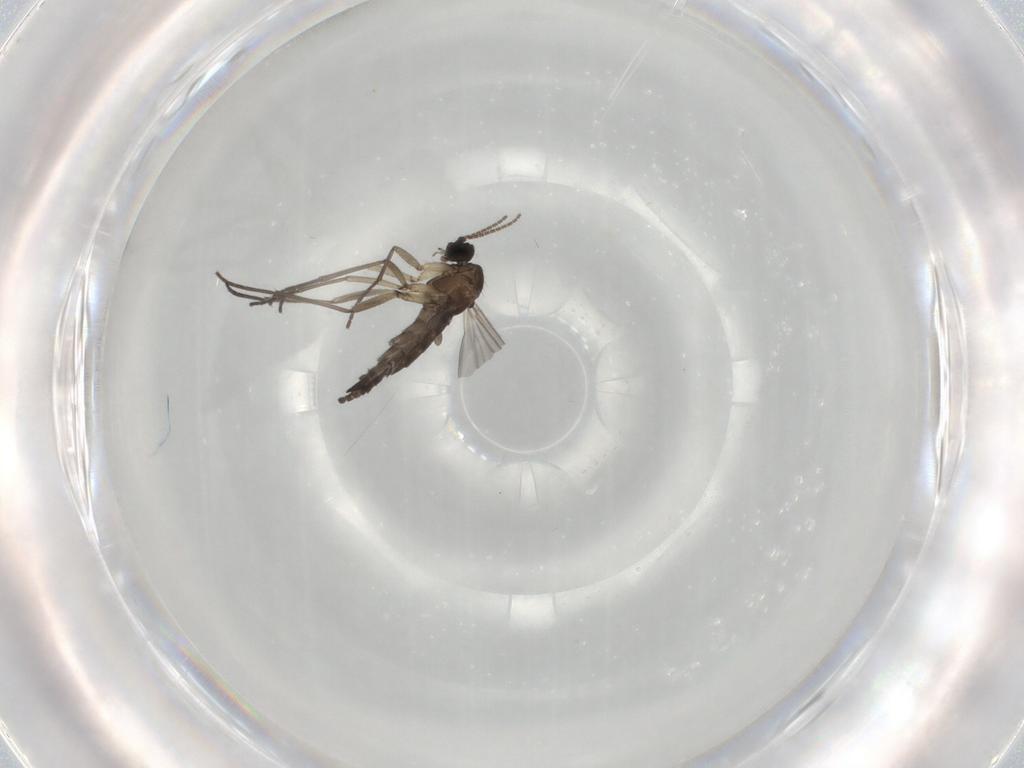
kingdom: Animalia
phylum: Arthropoda
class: Insecta
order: Diptera
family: Sciaridae
